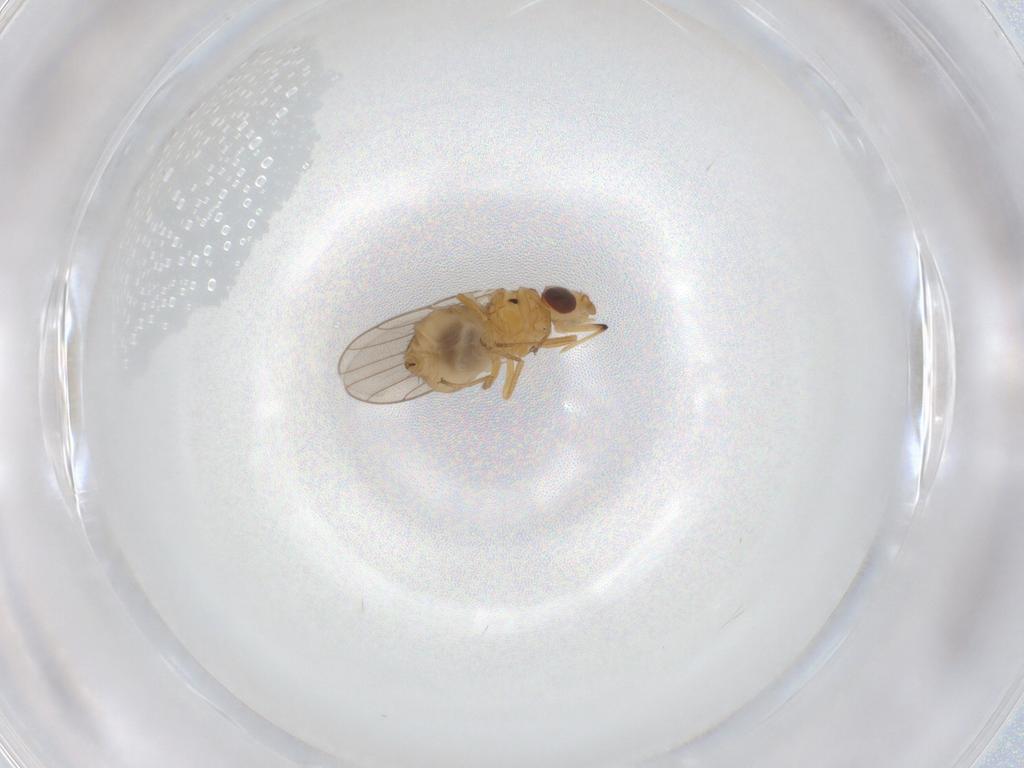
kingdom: Animalia
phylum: Arthropoda
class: Insecta
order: Diptera
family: Chloropidae
